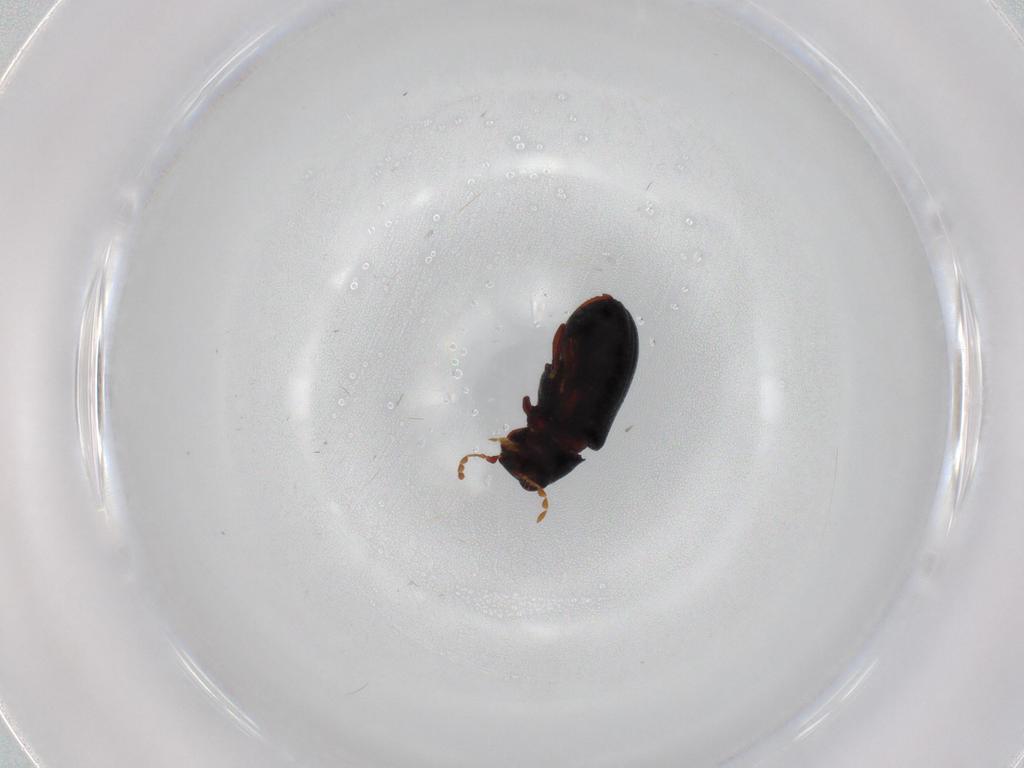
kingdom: Animalia
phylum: Arthropoda
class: Insecta
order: Coleoptera
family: Ptinidae
